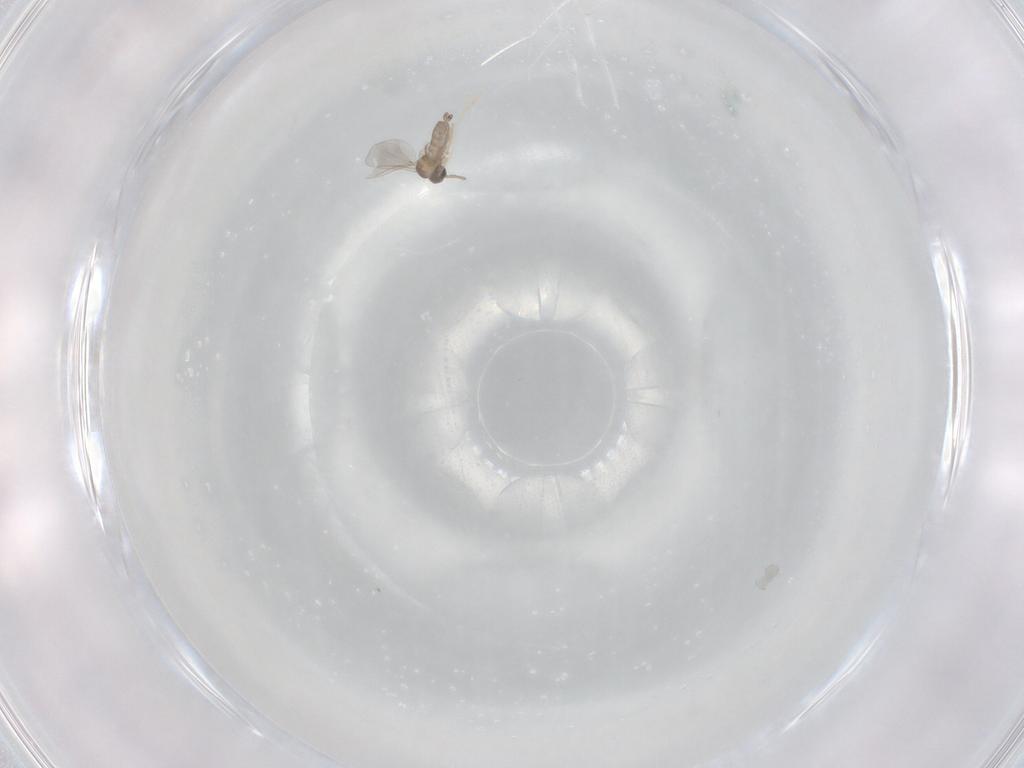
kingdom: Animalia
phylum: Arthropoda
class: Insecta
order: Diptera
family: Cecidomyiidae
